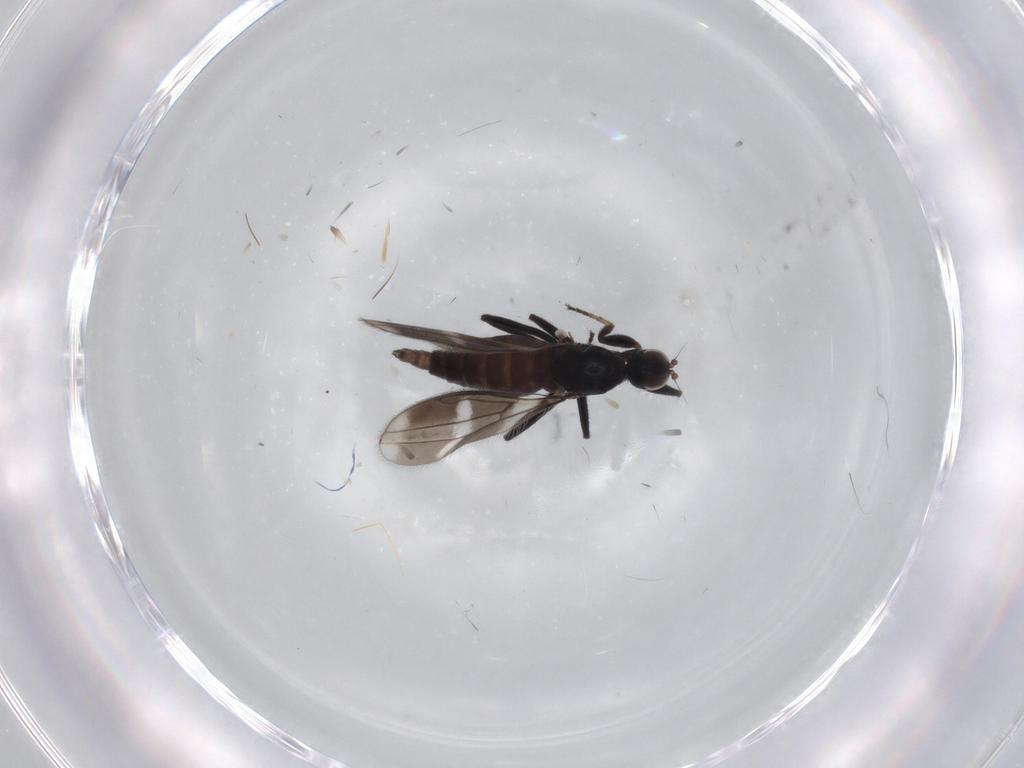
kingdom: Animalia
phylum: Arthropoda
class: Insecta
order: Diptera
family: Hybotidae
